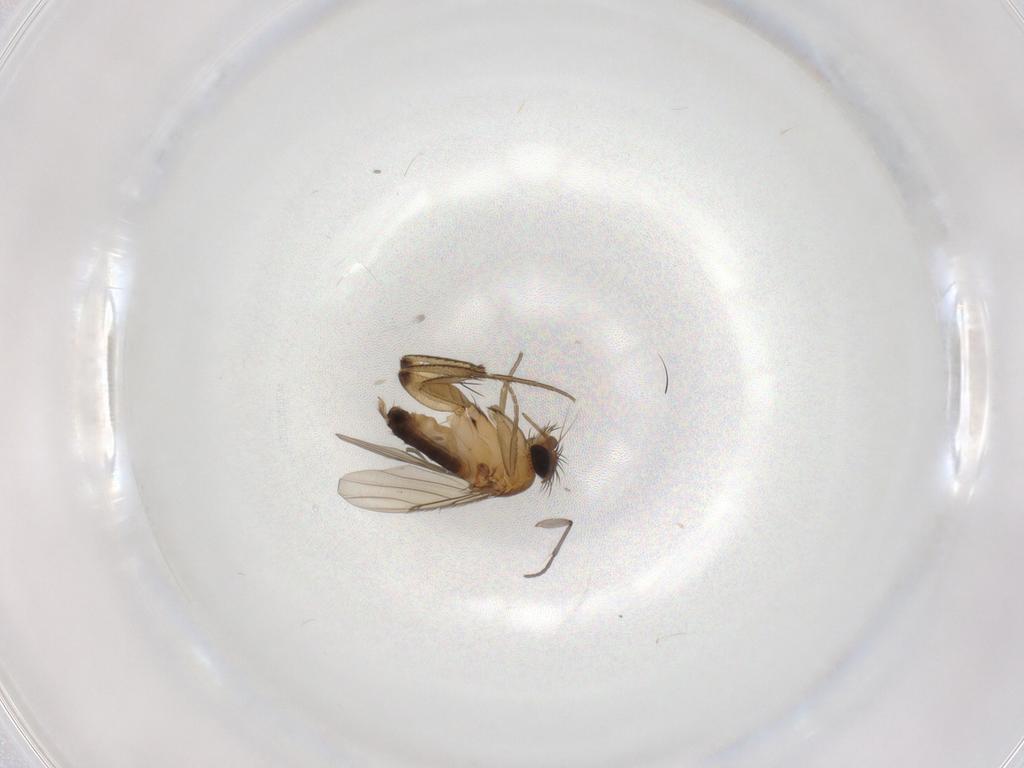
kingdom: Animalia
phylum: Arthropoda
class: Insecta
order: Diptera
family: Phoridae
